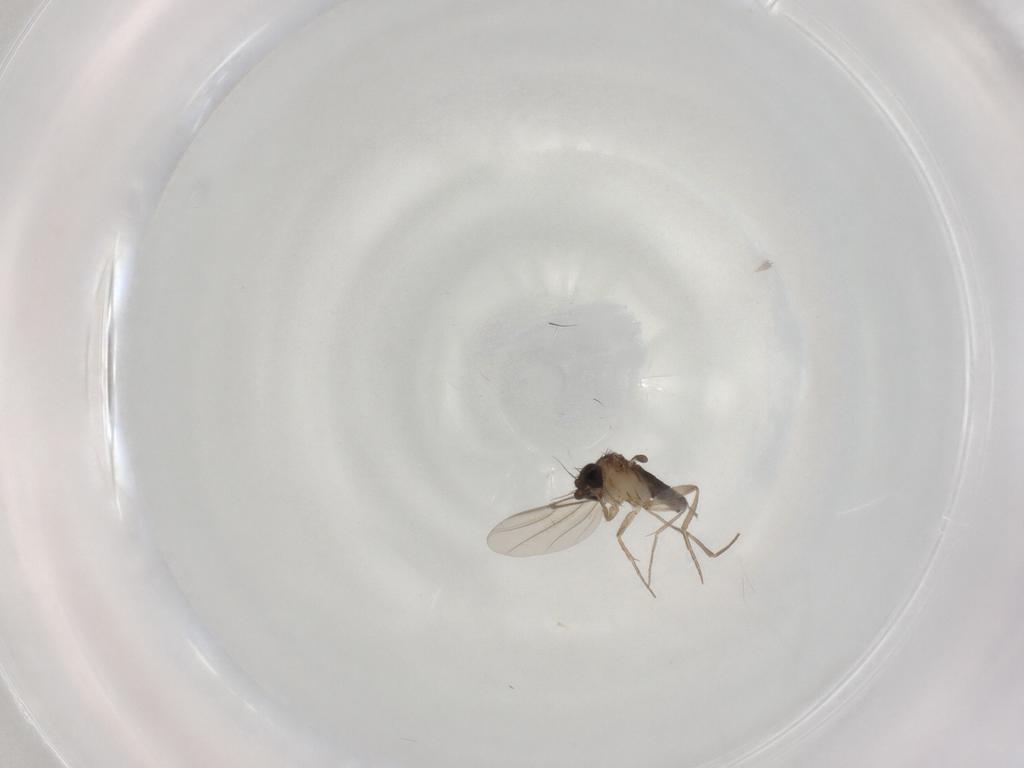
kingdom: Animalia
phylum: Arthropoda
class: Insecta
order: Diptera
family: Phoridae
